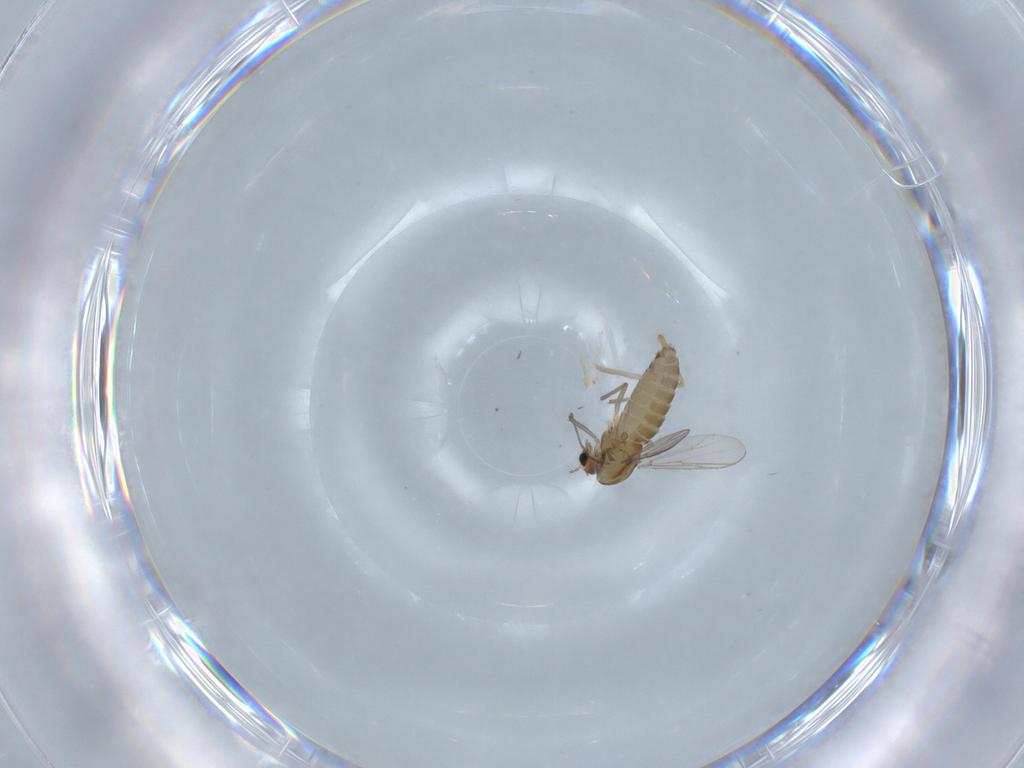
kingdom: Animalia
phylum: Arthropoda
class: Insecta
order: Diptera
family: Chironomidae
